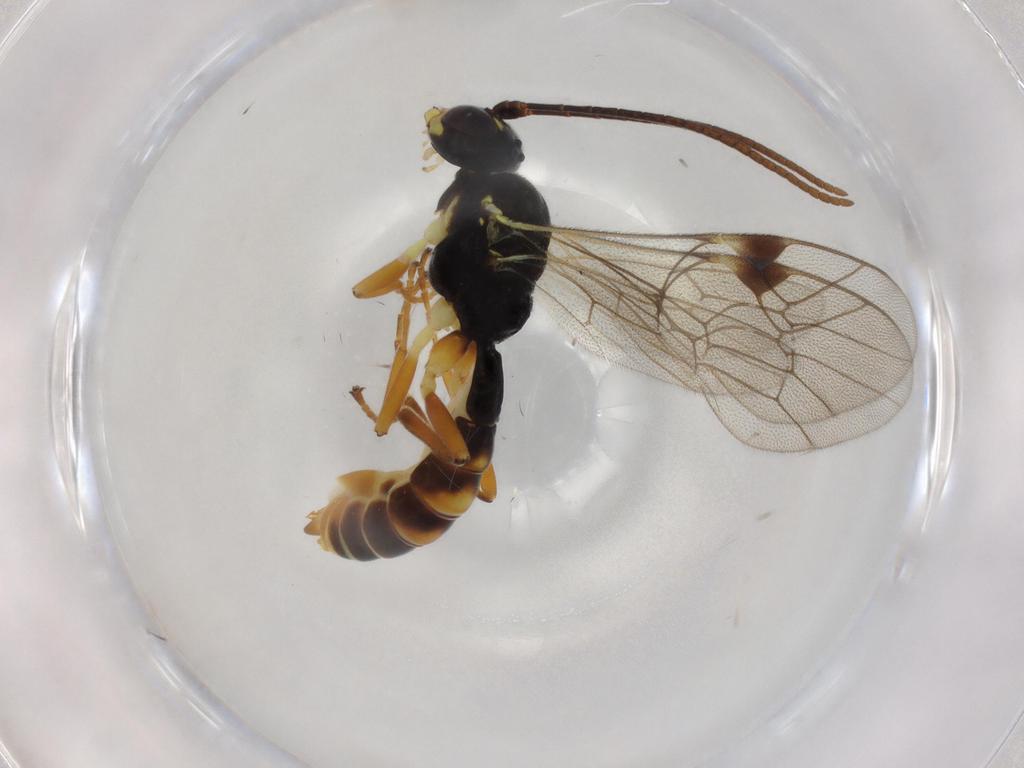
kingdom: Animalia
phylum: Arthropoda
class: Insecta
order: Hymenoptera
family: Ichneumonidae
